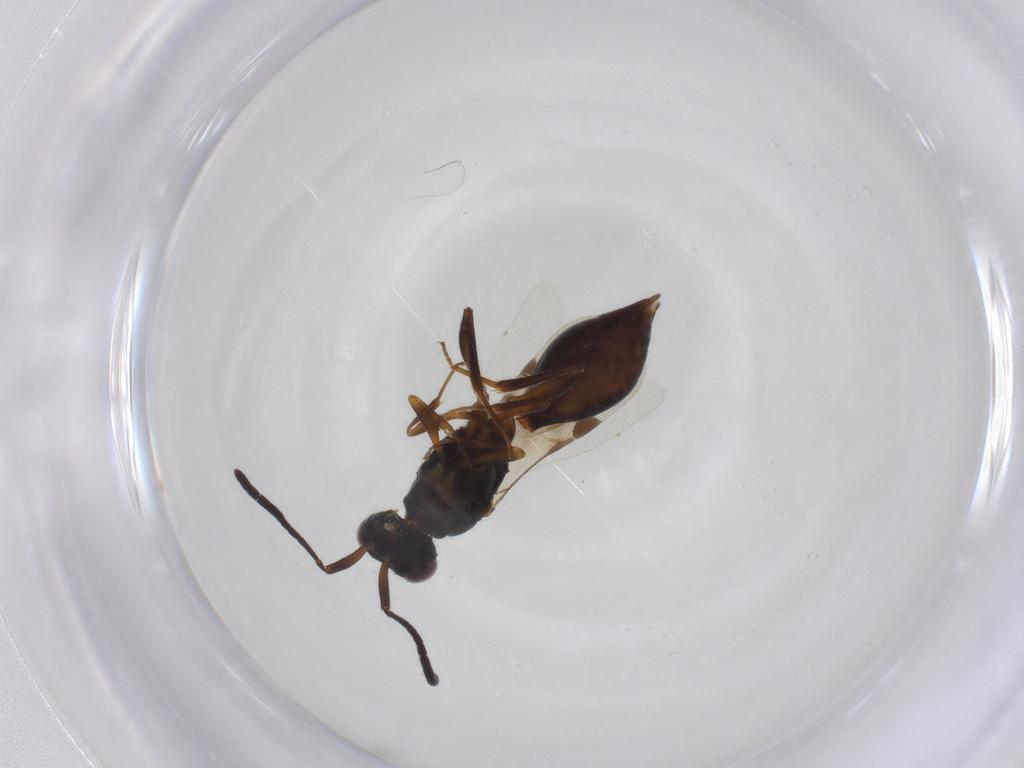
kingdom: Animalia
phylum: Arthropoda
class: Insecta
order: Hymenoptera
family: Megaspilidae
